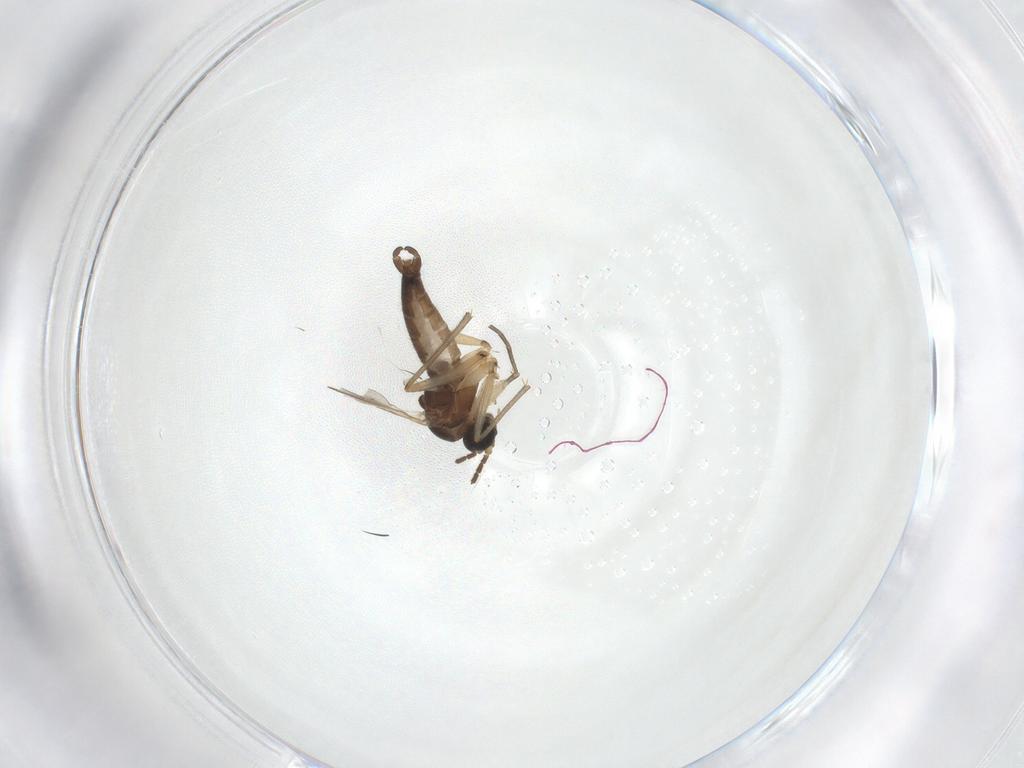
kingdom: Animalia
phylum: Arthropoda
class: Insecta
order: Diptera
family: Sciaridae
